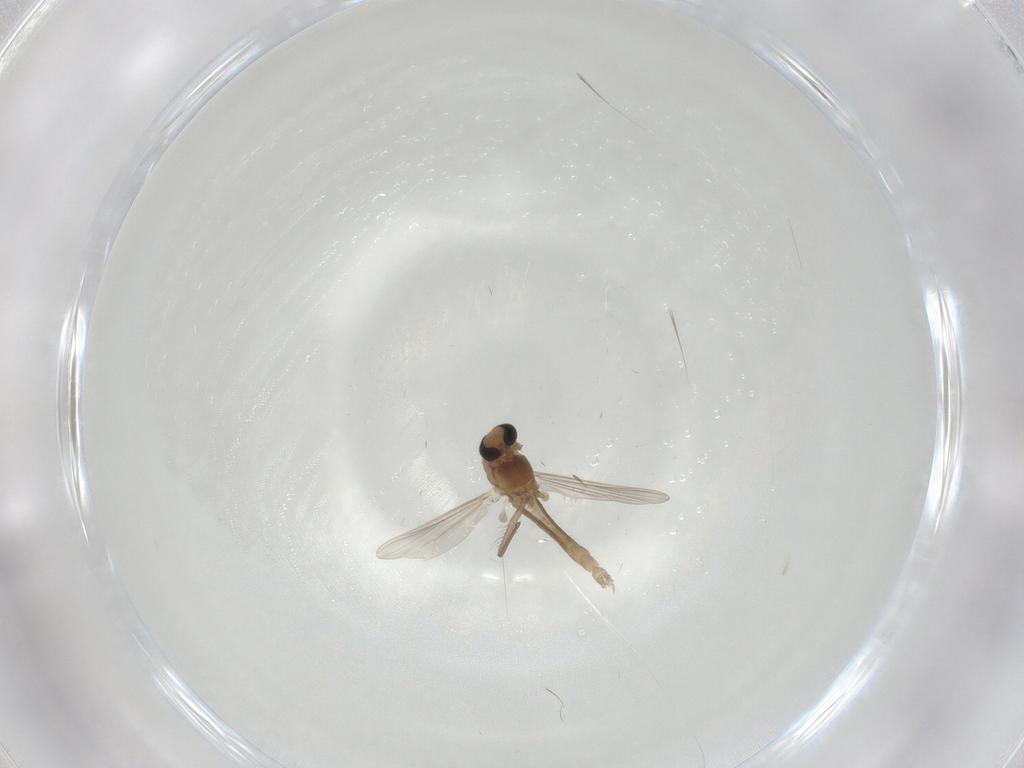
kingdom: Animalia
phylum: Arthropoda
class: Insecta
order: Diptera
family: Chironomidae
